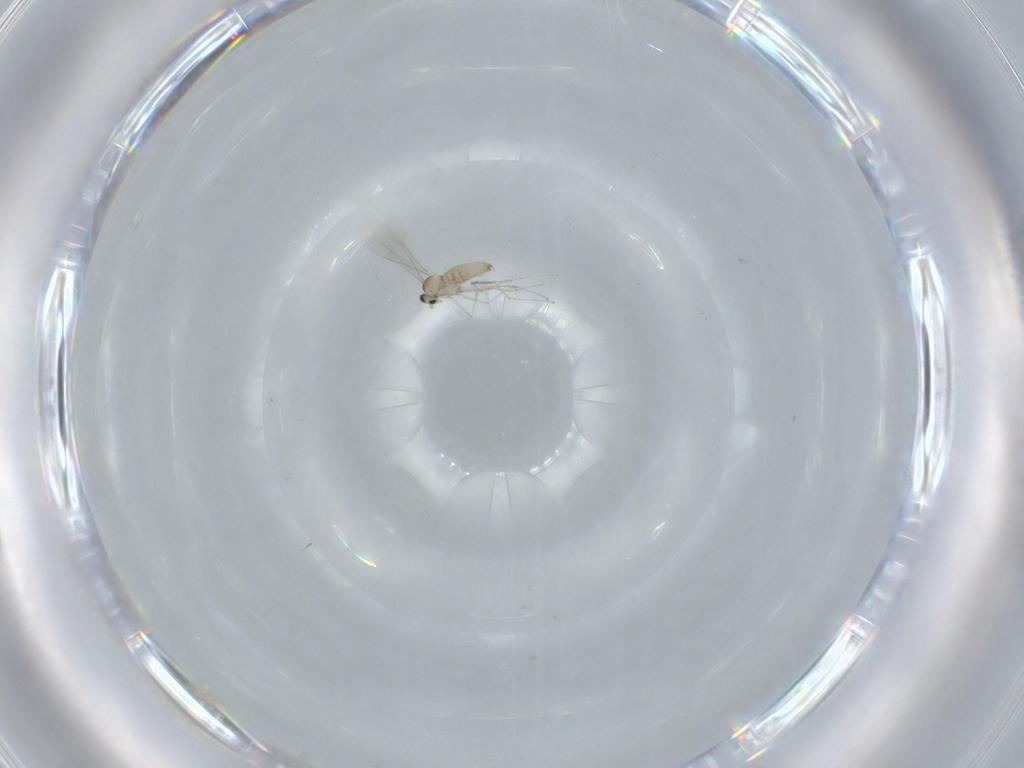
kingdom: Animalia
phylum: Arthropoda
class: Insecta
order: Diptera
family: Cecidomyiidae
